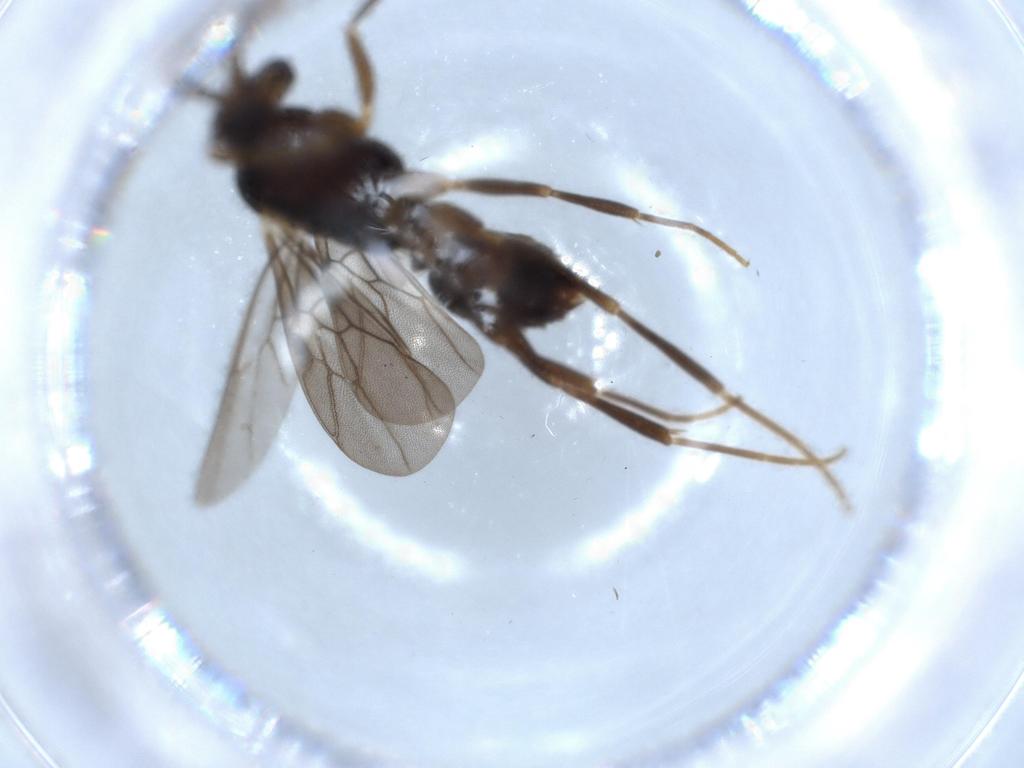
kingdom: Animalia
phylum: Arthropoda
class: Insecta
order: Hymenoptera
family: Formicidae
